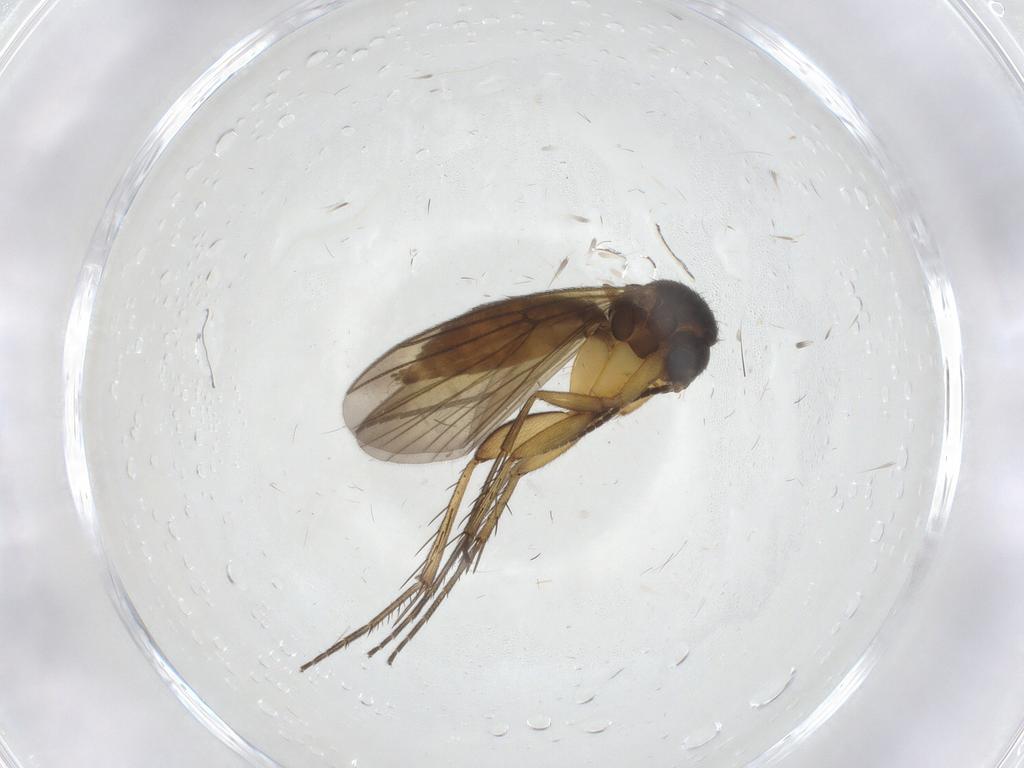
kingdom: Animalia
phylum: Arthropoda
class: Insecta
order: Diptera
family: Mycetophilidae
